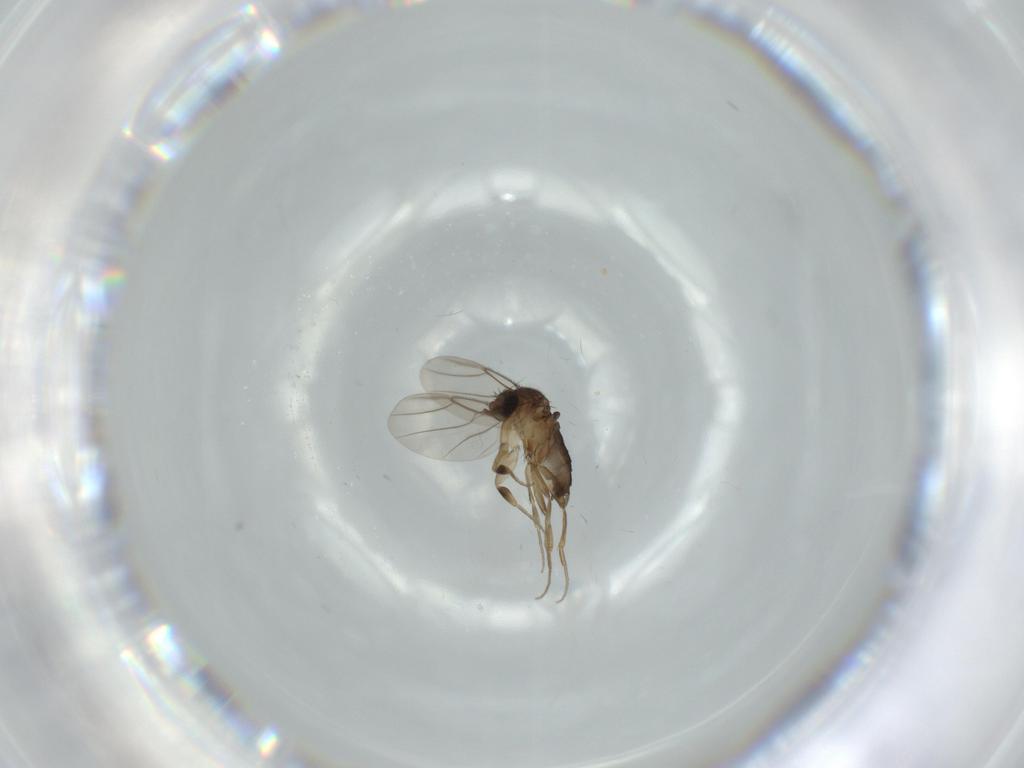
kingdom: Animalia
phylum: Arthropoda
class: Insecta
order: Diptera
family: Phoridae
